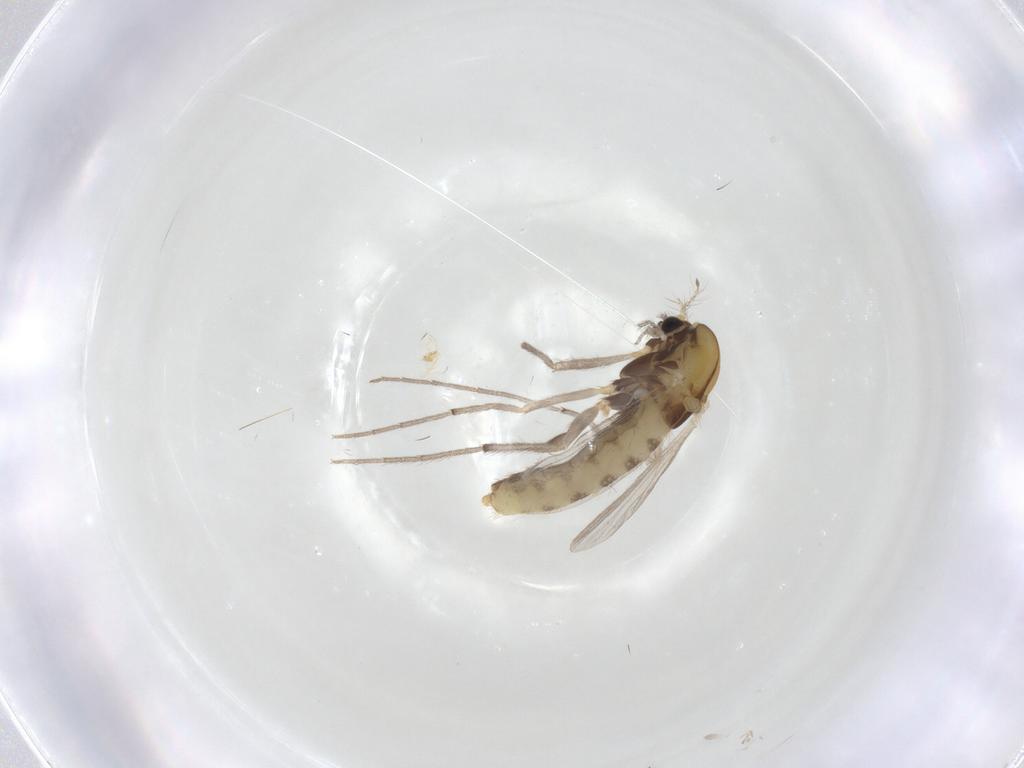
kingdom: Animalia
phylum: Arthropoda
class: Insecta
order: Diptera
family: Chironomidae
